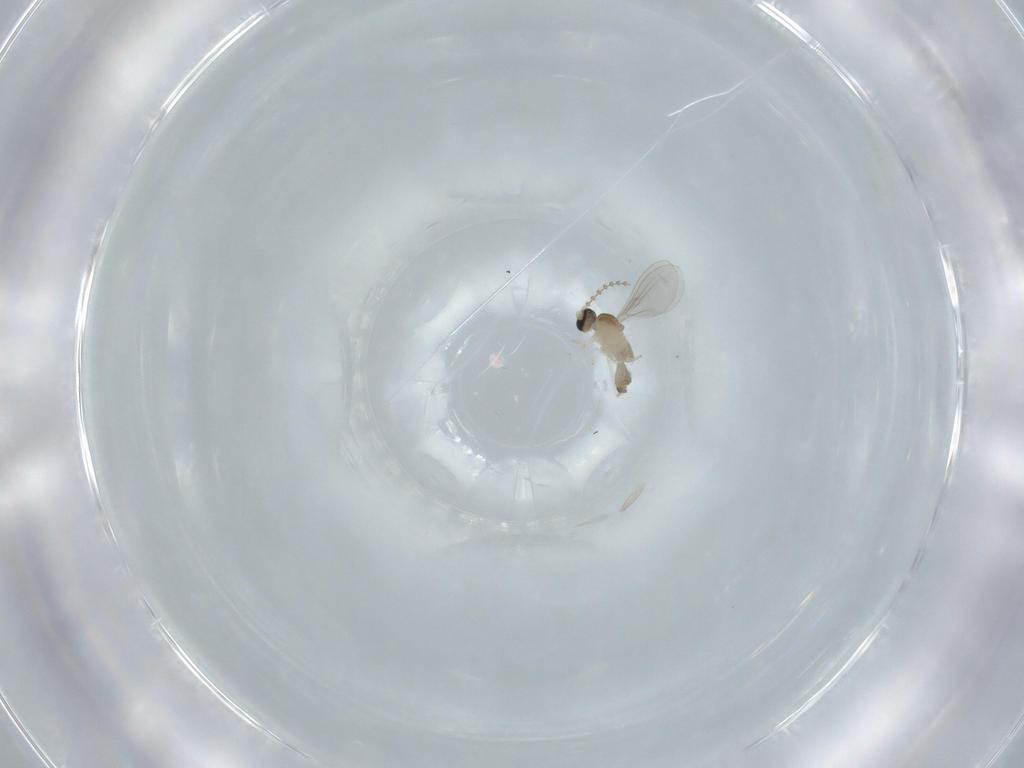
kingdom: Animalia
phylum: Arthropoda
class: Insecta
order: Diptera
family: Cecidomyiidae
